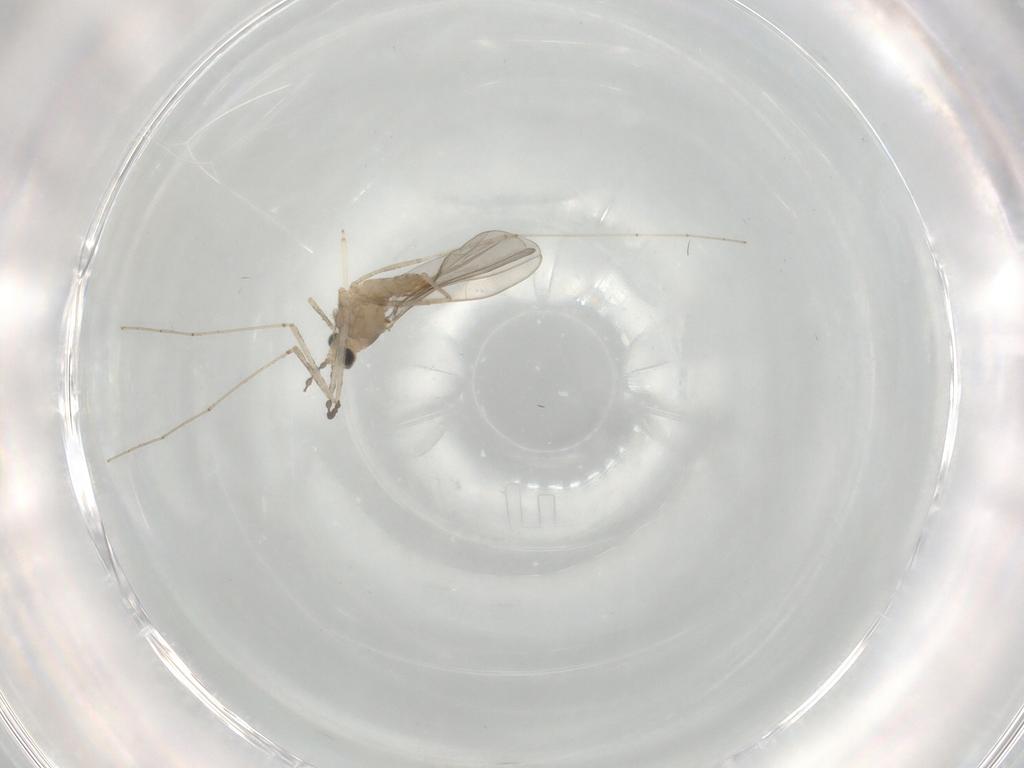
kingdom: Animalia
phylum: Arthropoda
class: Insecta
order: Diptera
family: Cecidomyiidae
